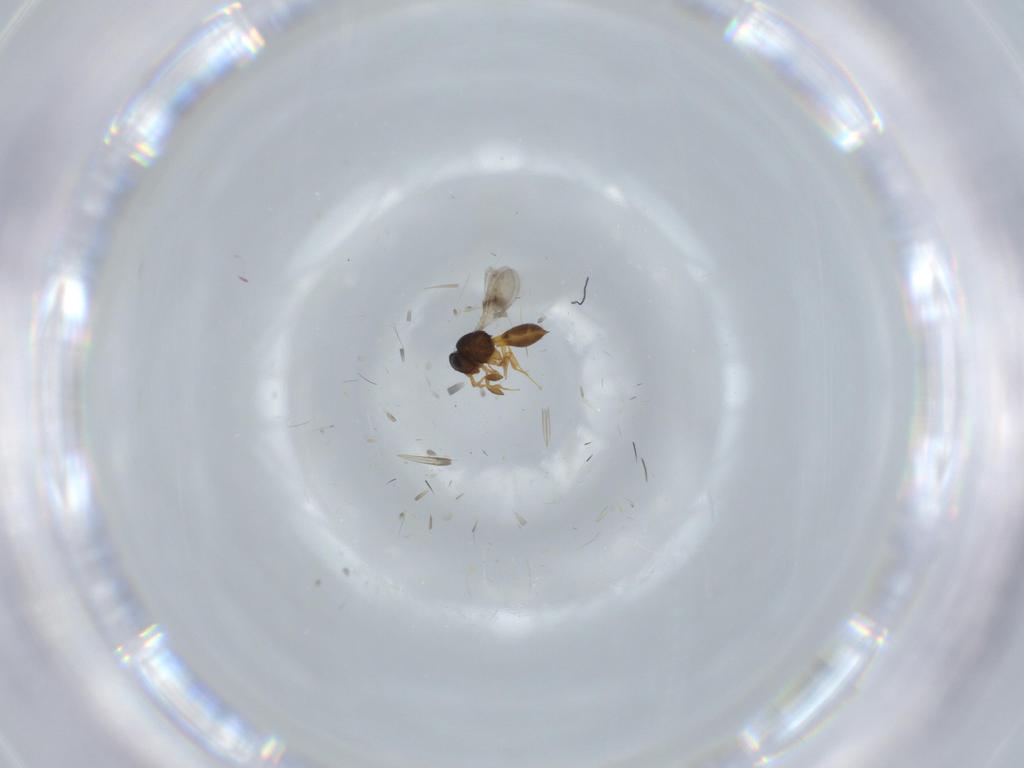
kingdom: Animalia
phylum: Arthropoda
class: Insecta
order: Hymenoptera
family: Scelionidae
